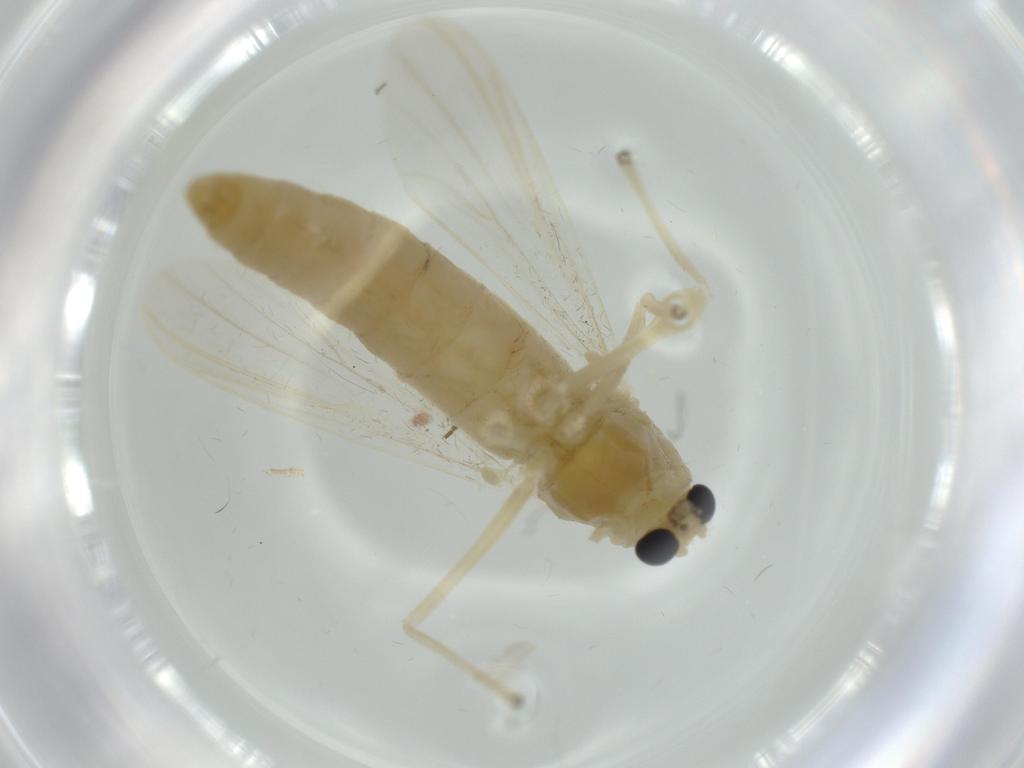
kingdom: Animalia
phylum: Arthropoda
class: Insecta
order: Diptera
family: Chironomidae
